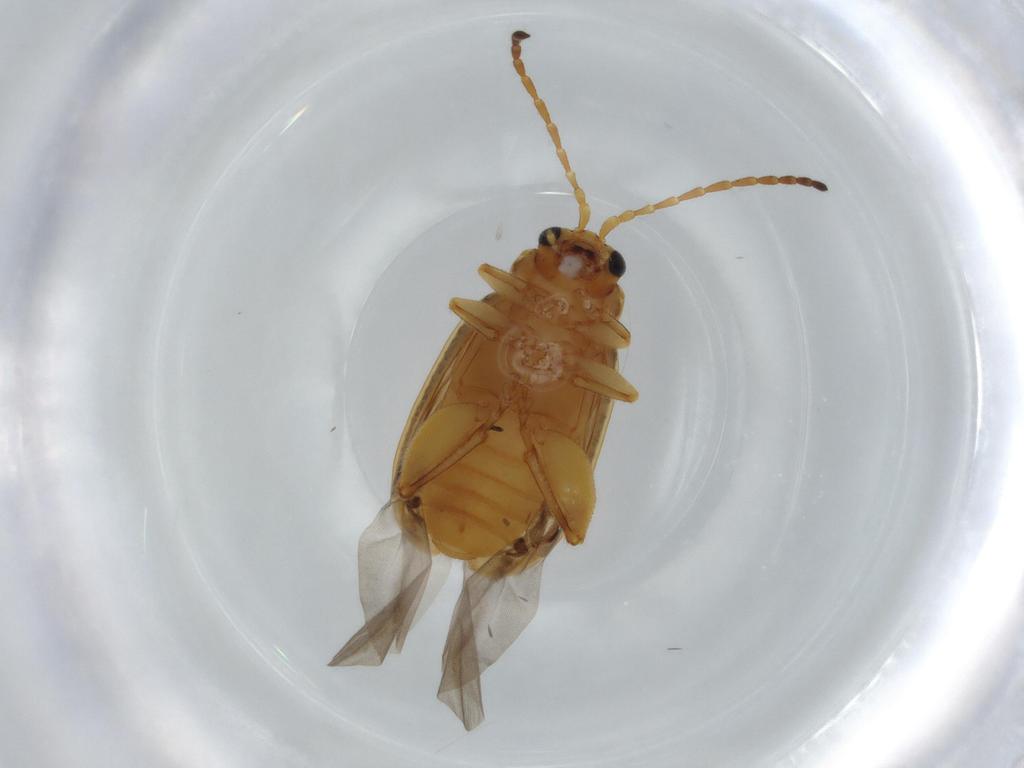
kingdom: Animalia
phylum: Arthropoda
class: Insecta
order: Coleoptera
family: Chrysomelidae
